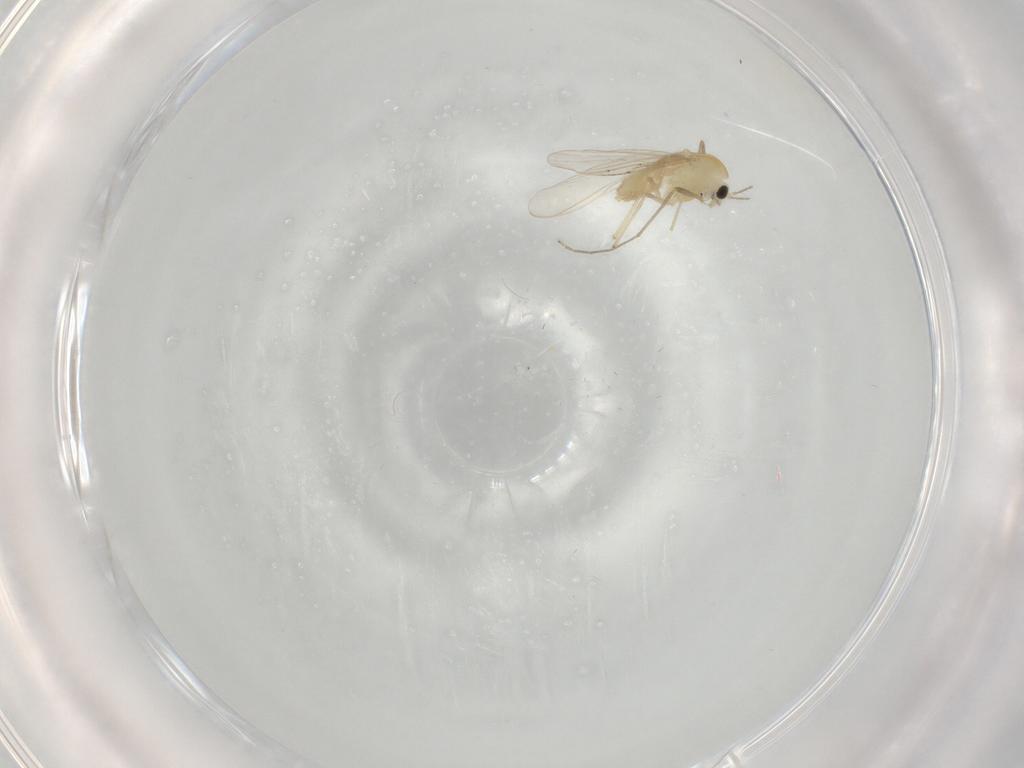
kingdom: Animalia
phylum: Arthropoda
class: Insecta
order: Diptera
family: Chironomidae
